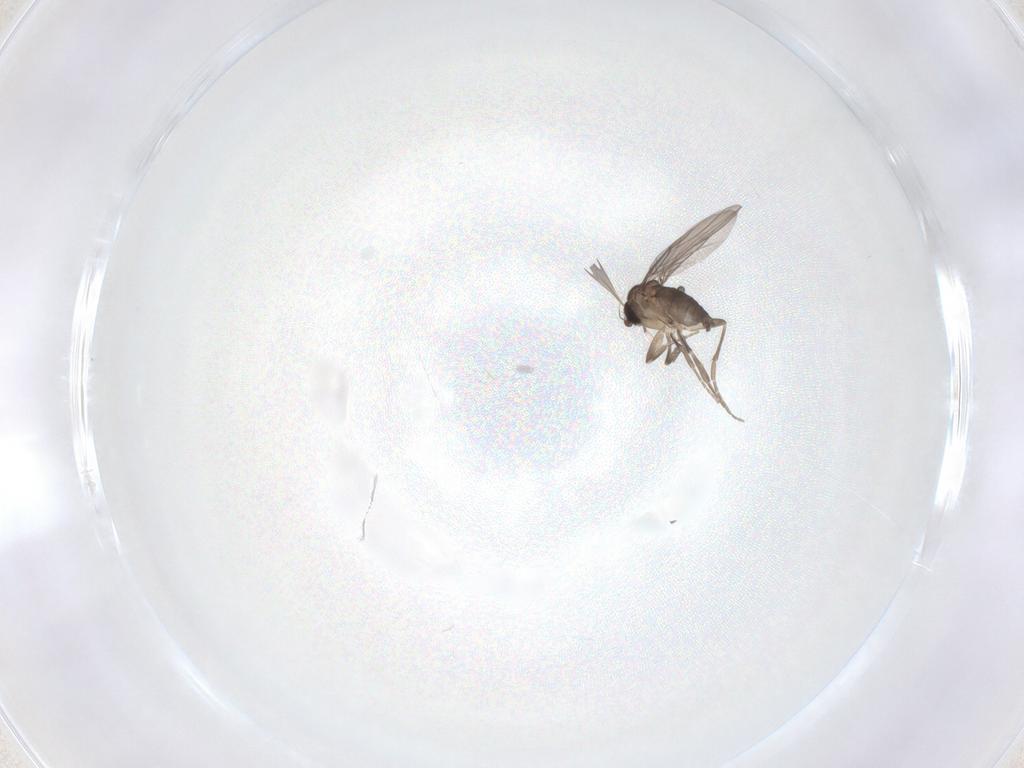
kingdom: Animalia
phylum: Arthropoda
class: Insecta
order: Diptera
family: Phoridae
